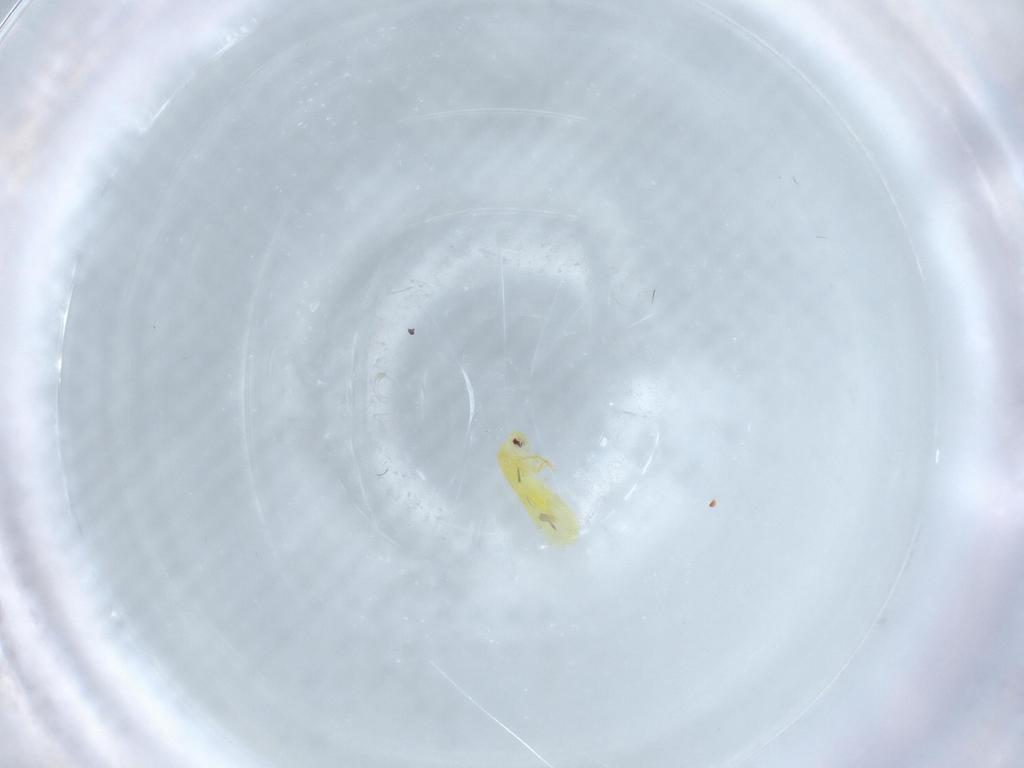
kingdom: Animalia
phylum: Arthropoda
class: Insecta
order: Hemiptera
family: Aleyrodidae
